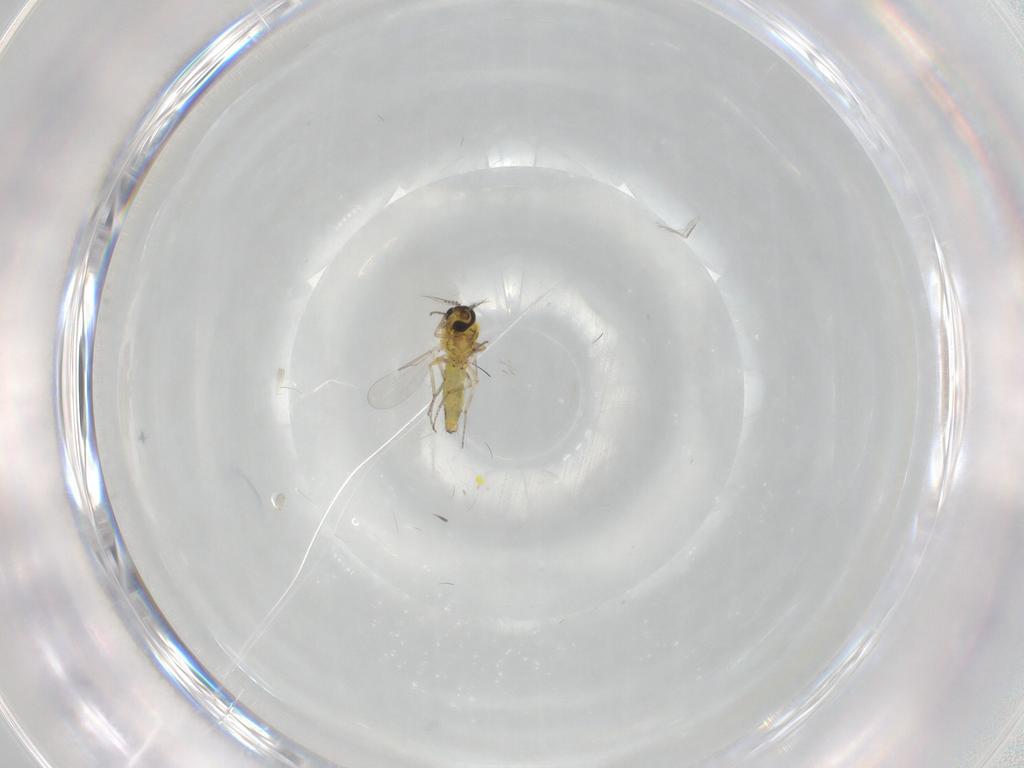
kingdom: Animalia
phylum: Arthropoda
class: Insecta
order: Diptera
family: Ceratopogonidae
